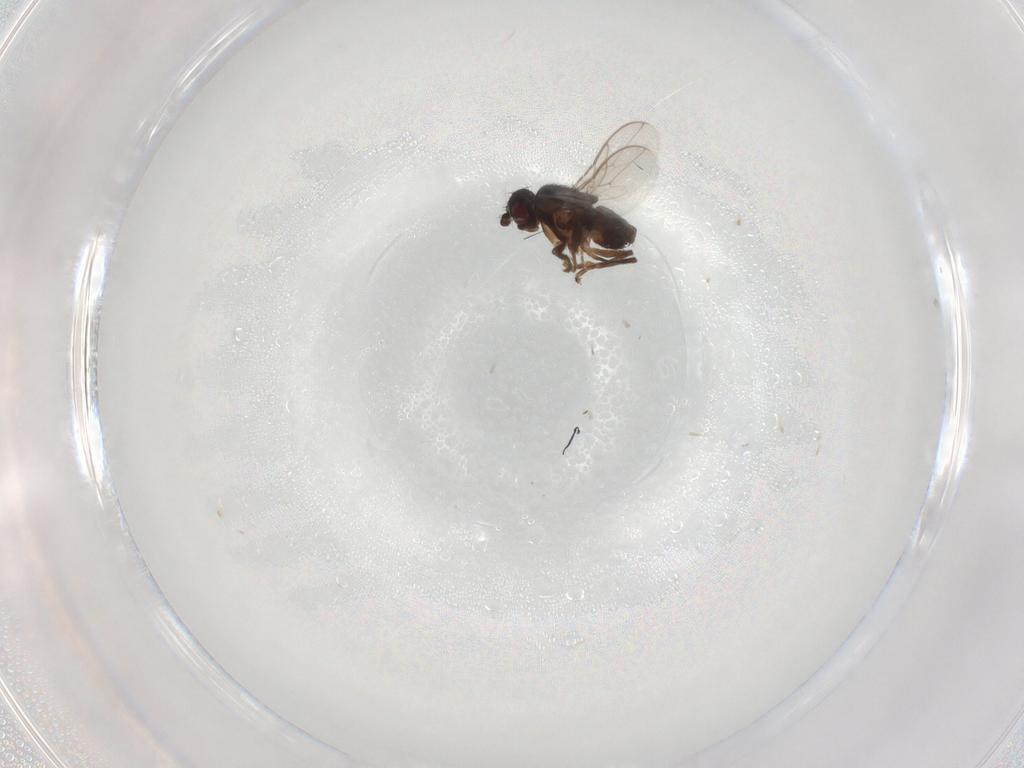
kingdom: Animalia
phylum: Arthropoda
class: Insecta
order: Diptera
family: Sphaeroceridae
